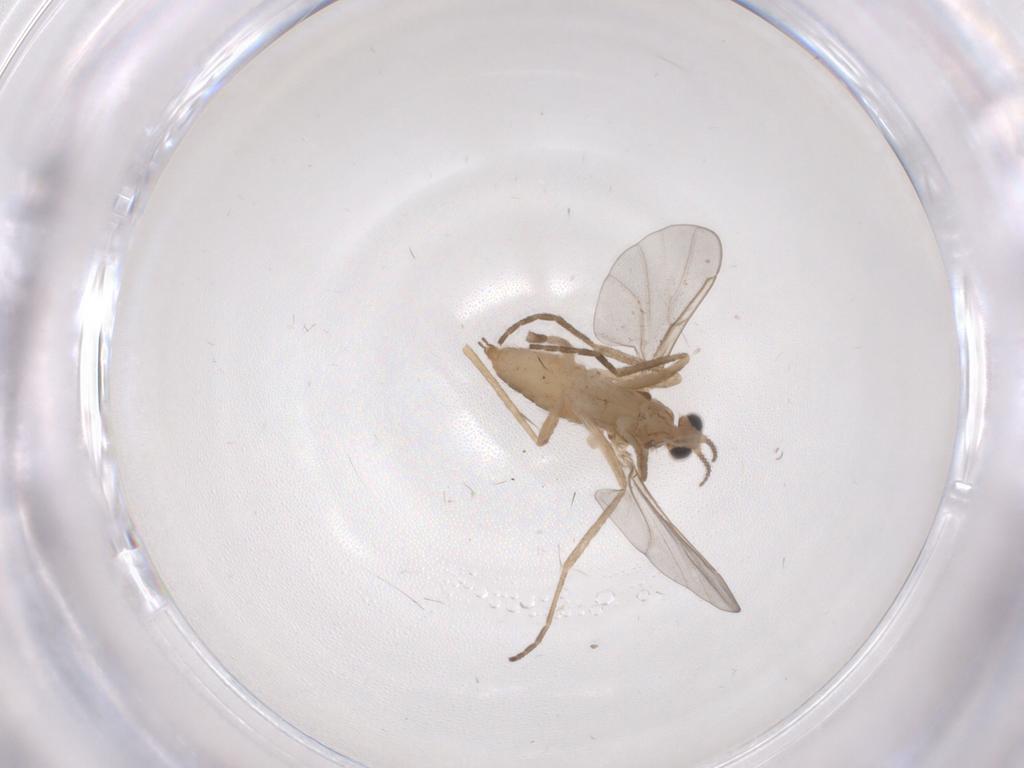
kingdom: Animalia
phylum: Arthropoda
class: Insecta
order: Diptera
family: Cecidomyiidae
